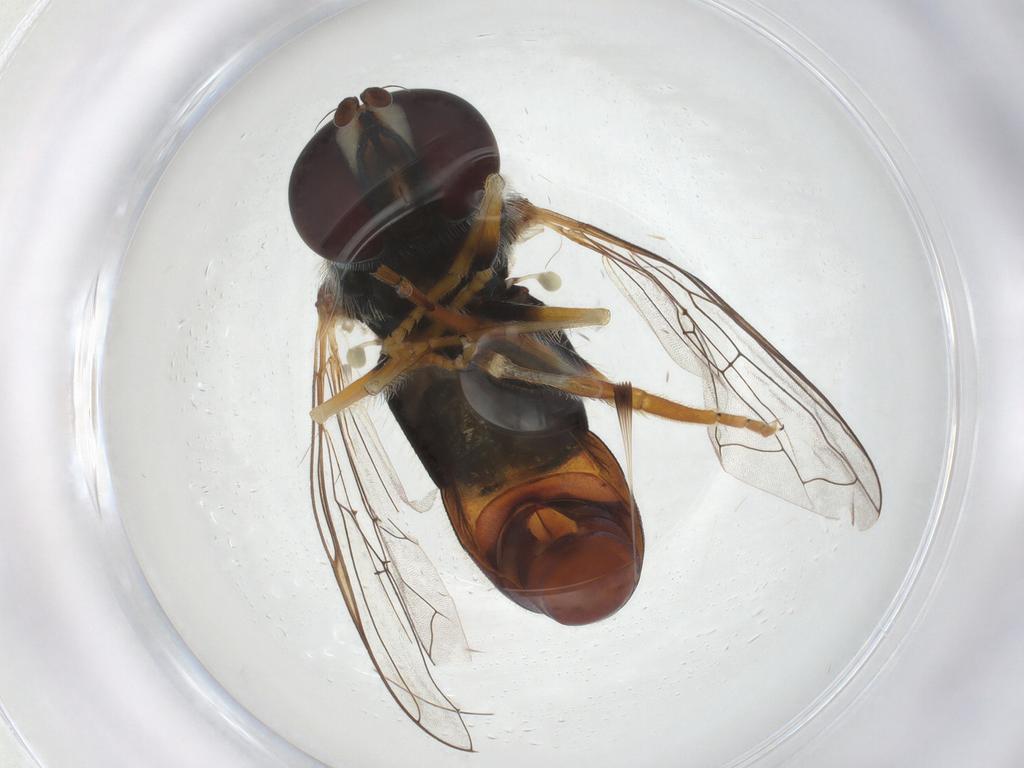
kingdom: Animalia
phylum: Arthropoda
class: Insecta
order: Diptera
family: Syrphidae
